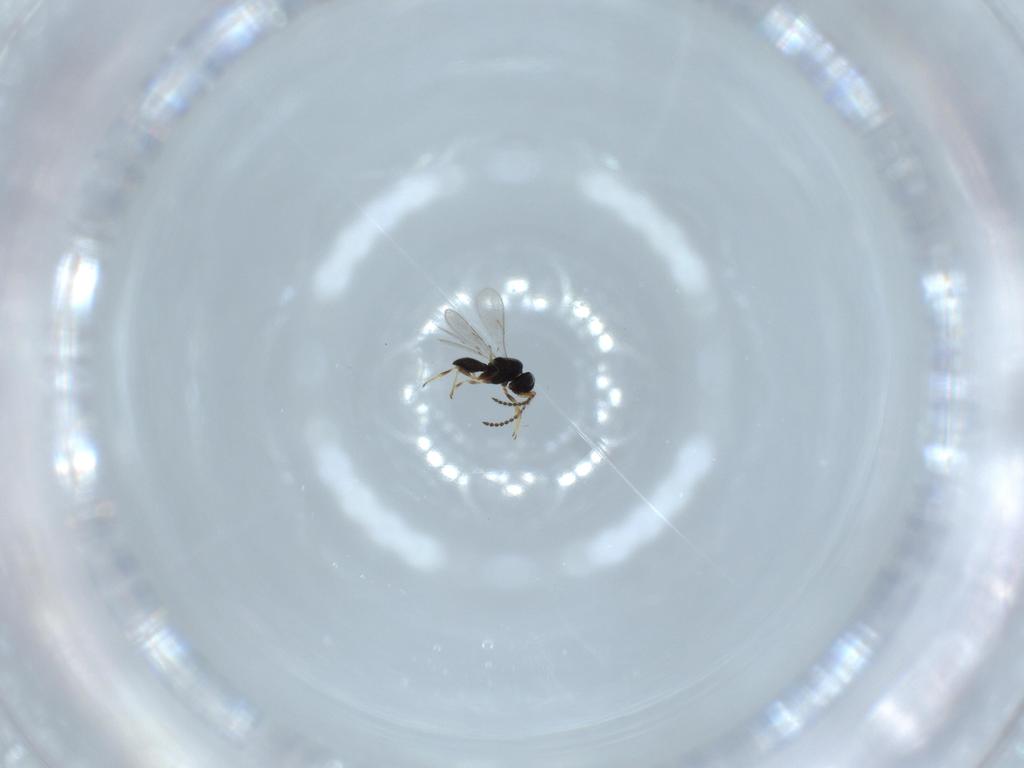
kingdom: Animalia
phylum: Arthropoda
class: Insecta
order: Hymenoptera
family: Scelionidae
